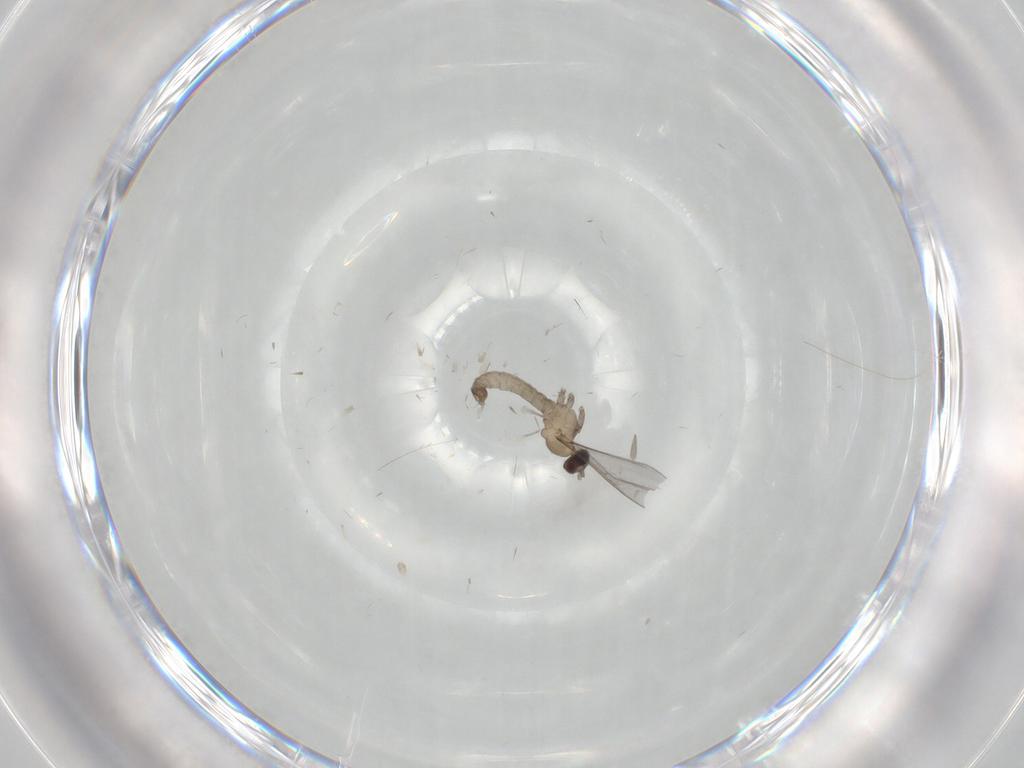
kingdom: Animalia
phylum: Arthropoda
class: Insecta
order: Diptera
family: Cecidomyiidae
